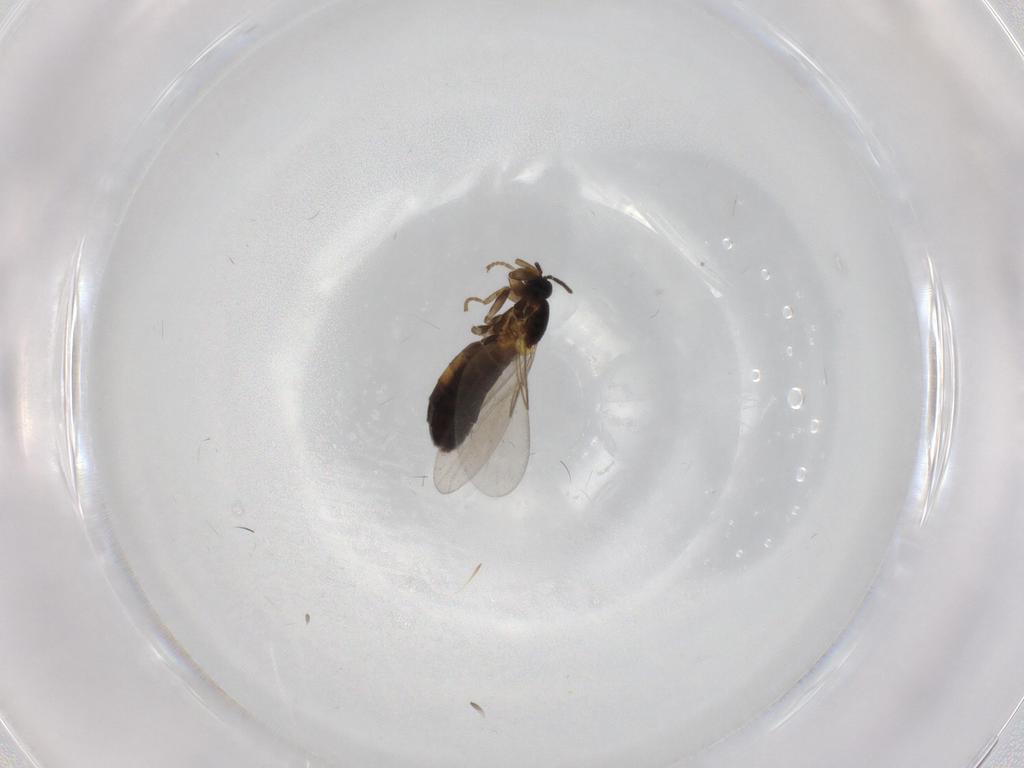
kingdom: Animalia
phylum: Arthropoda
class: Insecta
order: Diptera
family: Scatopsidae
